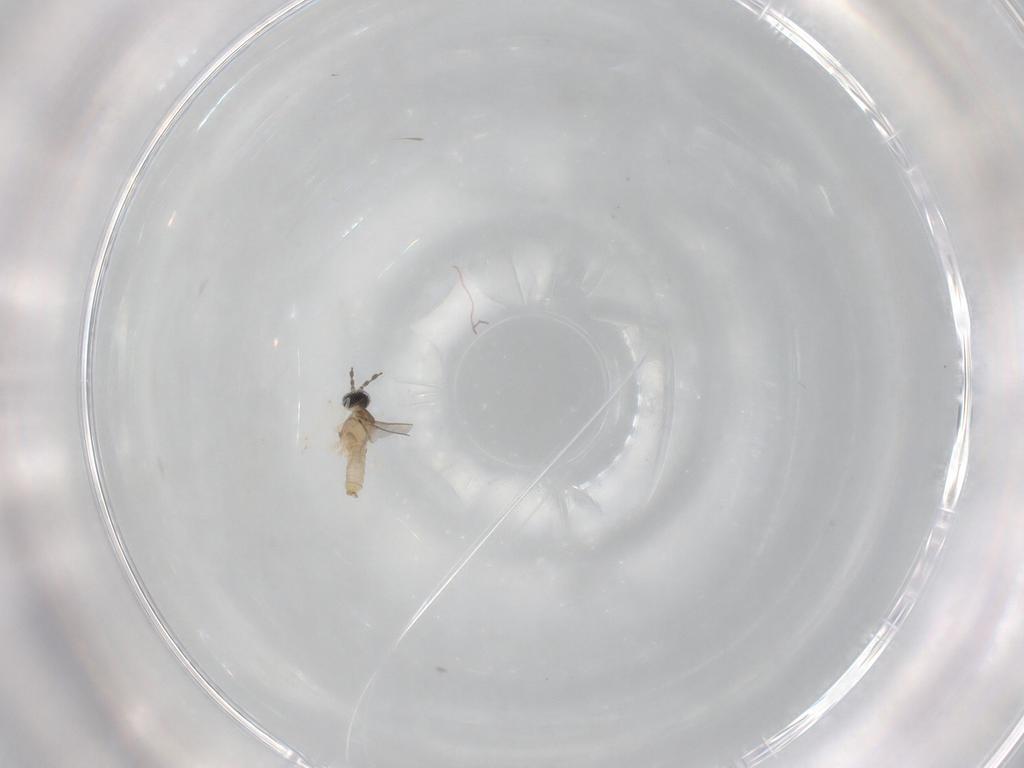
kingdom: Animalia
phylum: Arthropoda
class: Insecta
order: Diptera
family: Cecidomyiidae
